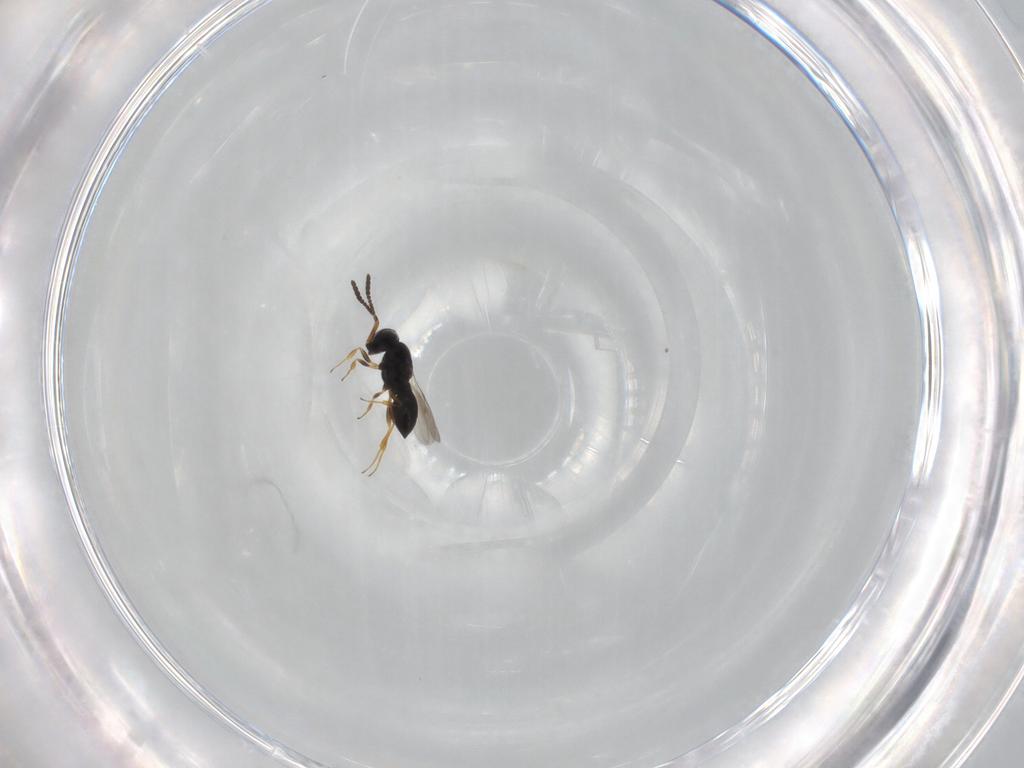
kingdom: Animalia
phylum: Arthropoda
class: Insecta
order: Hymenoptera
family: Scelionidae
